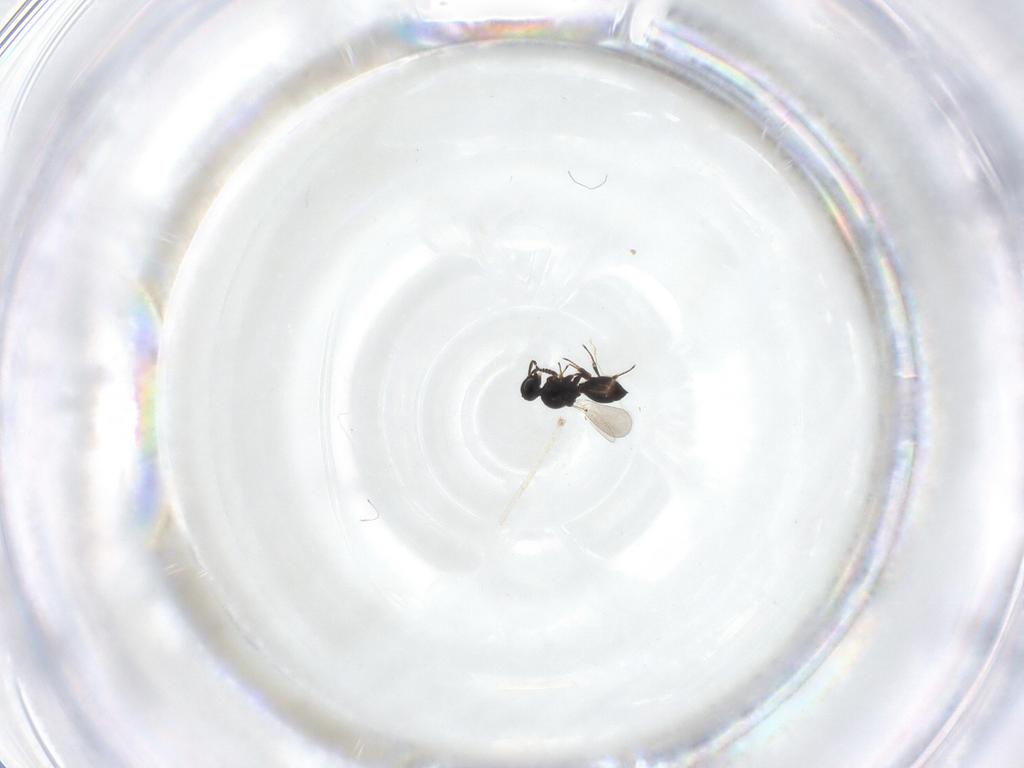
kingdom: Animalia
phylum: Arthropoda
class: Insecta
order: Hymenoptera
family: Platygastridae
